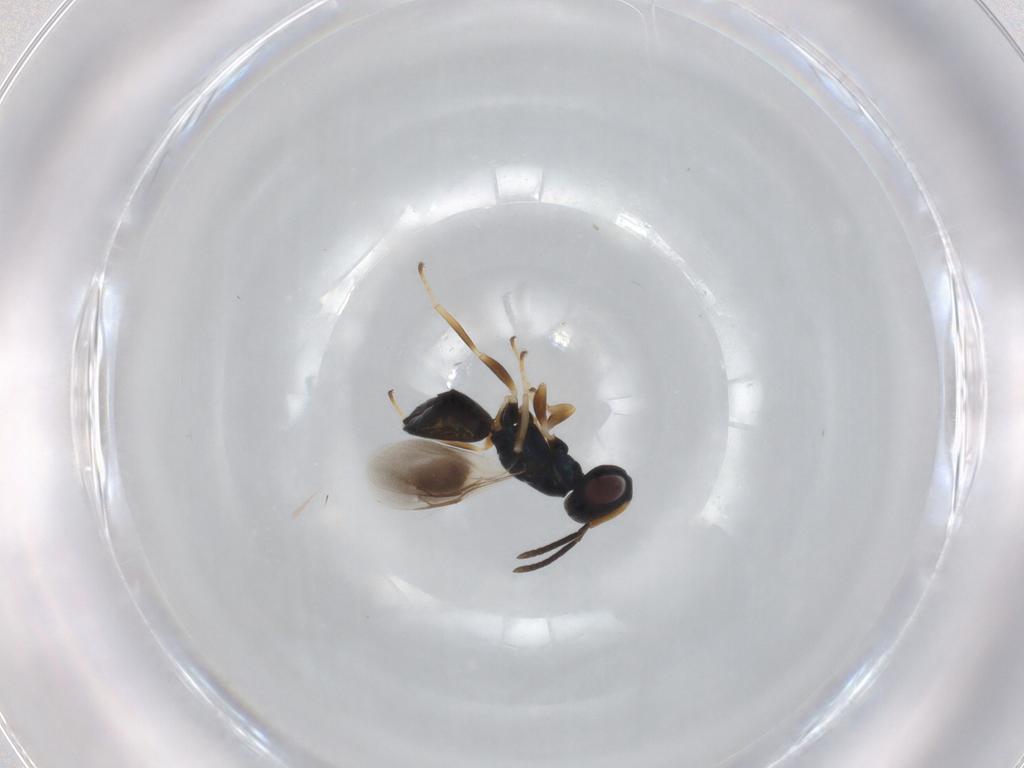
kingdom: Animalia
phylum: Arthropoda
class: Insecta
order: Hymenoptera
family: Pteromalidae
